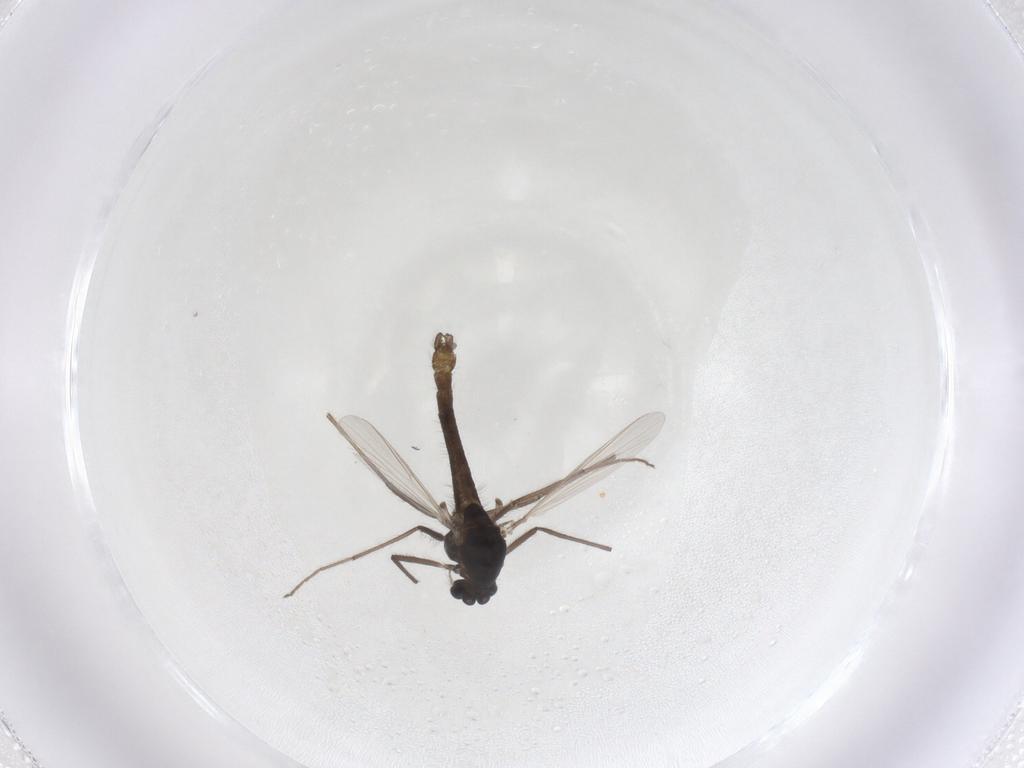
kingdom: Animalia
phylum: Arthropoda
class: Insecta
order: Diptera
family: Chironomidae
